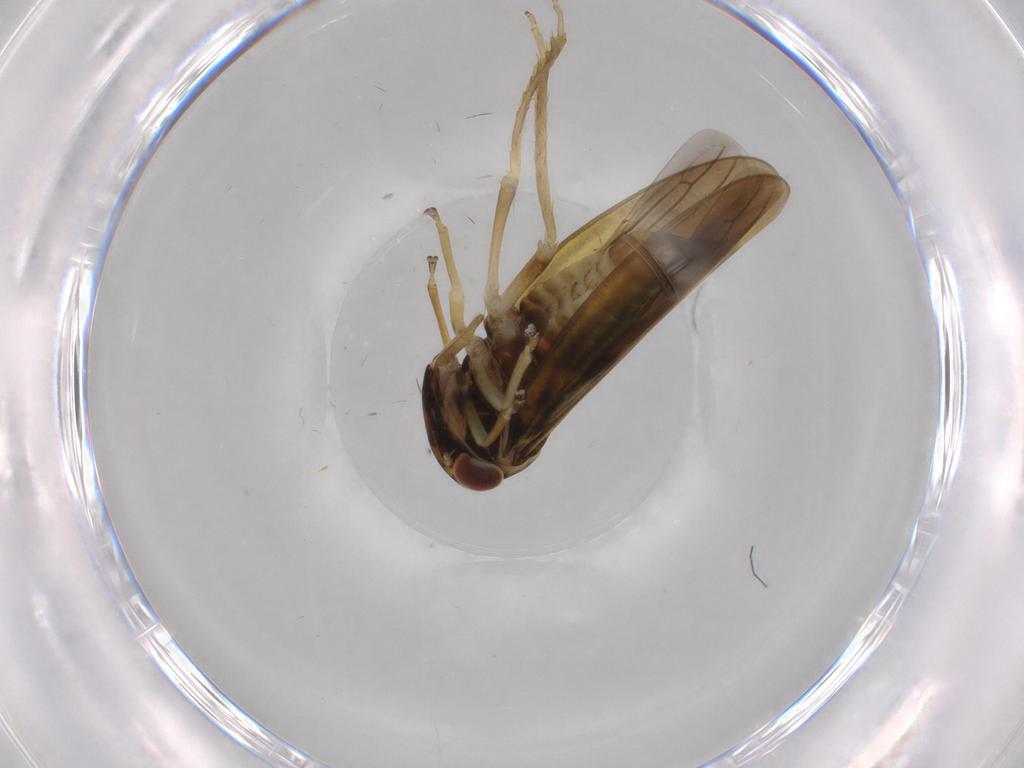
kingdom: Animalia
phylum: Arthropoda
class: Insecta
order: Hemiptera
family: Cicadellidae
